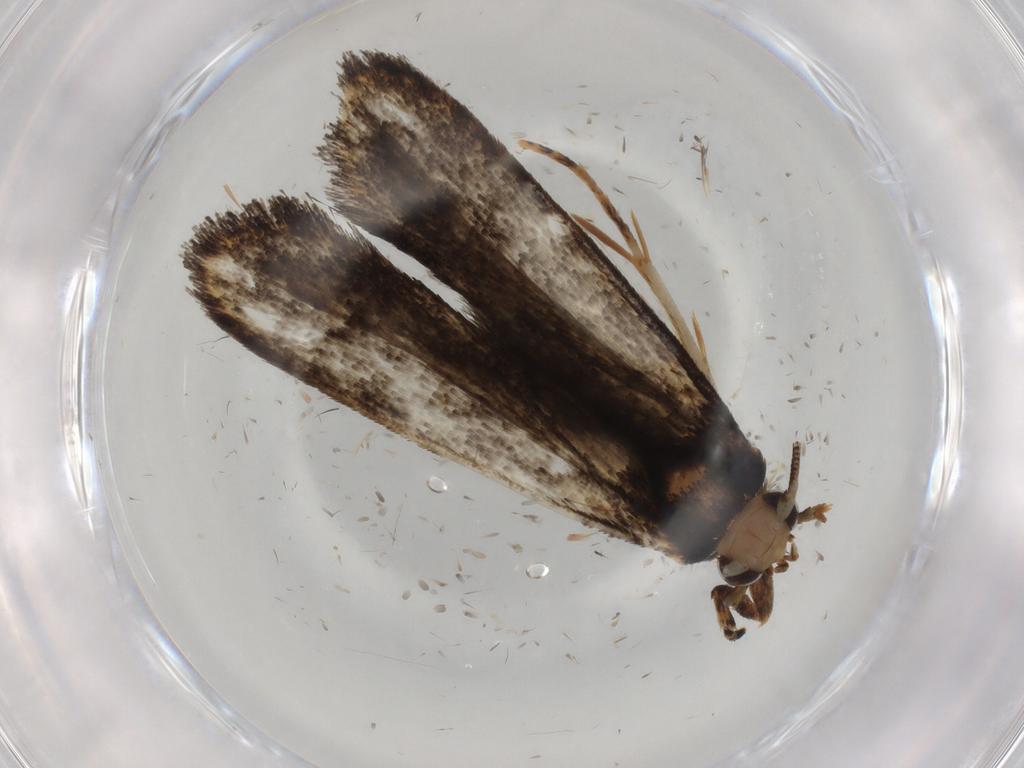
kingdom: Animalia
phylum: Arthropoda
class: Insecta
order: Lepidoptera
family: Tineidae
